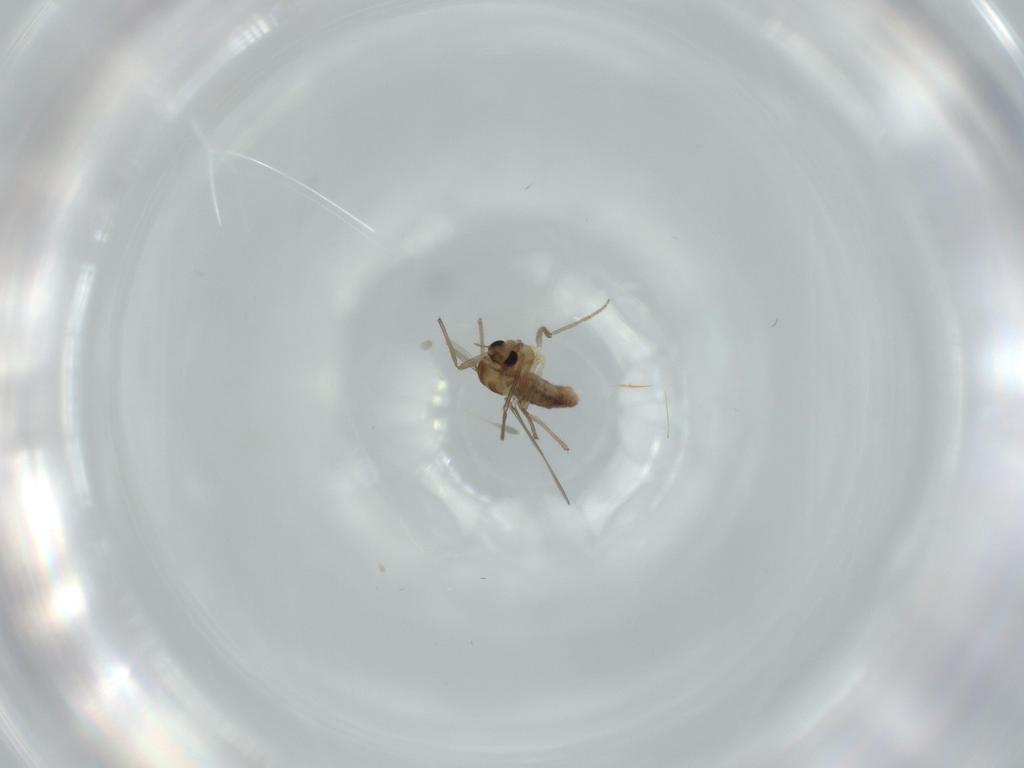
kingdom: Animalia
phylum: Arthropoda
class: Insecta
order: Diptera
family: Chironomidae
